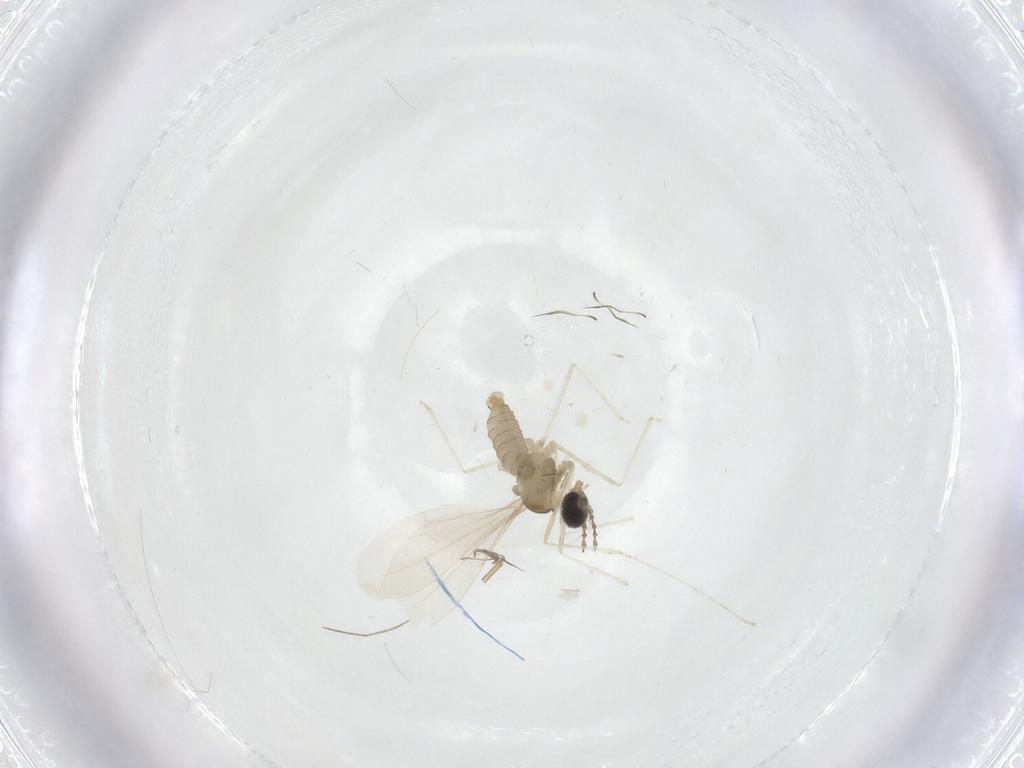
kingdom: Animalia
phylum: Arthropoda
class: Insecta
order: Diptera
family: Cecidomyiidae
